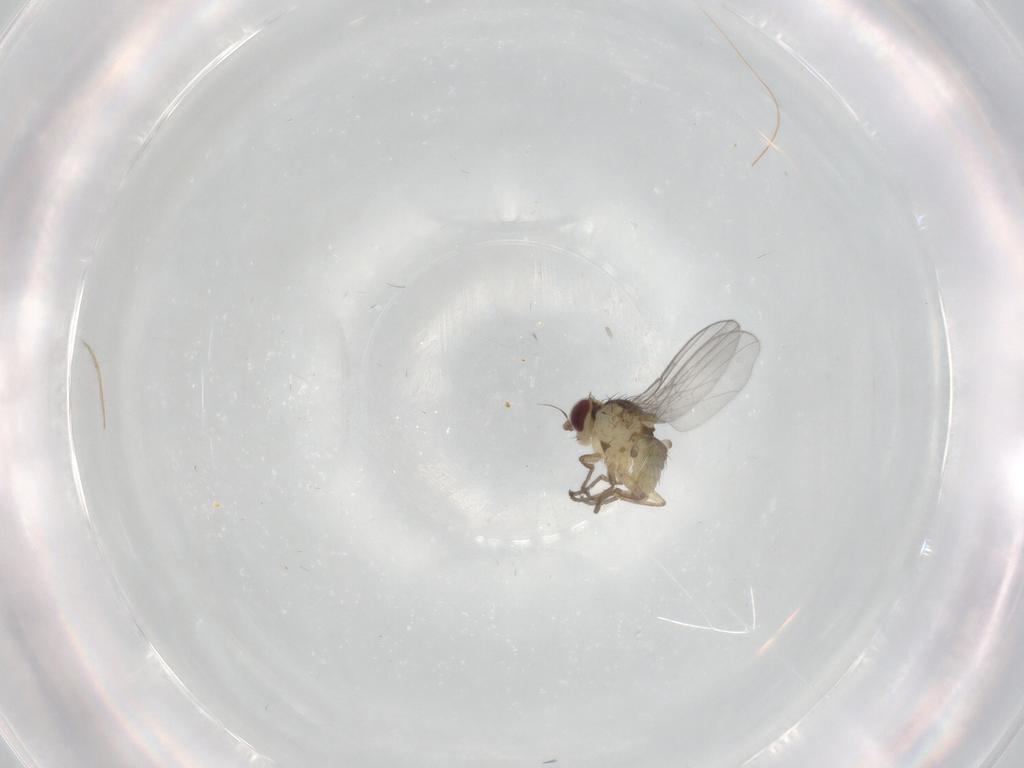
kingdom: Animalia
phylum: Arthropoda
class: Insecta
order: Diptera
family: Agromyzidae
